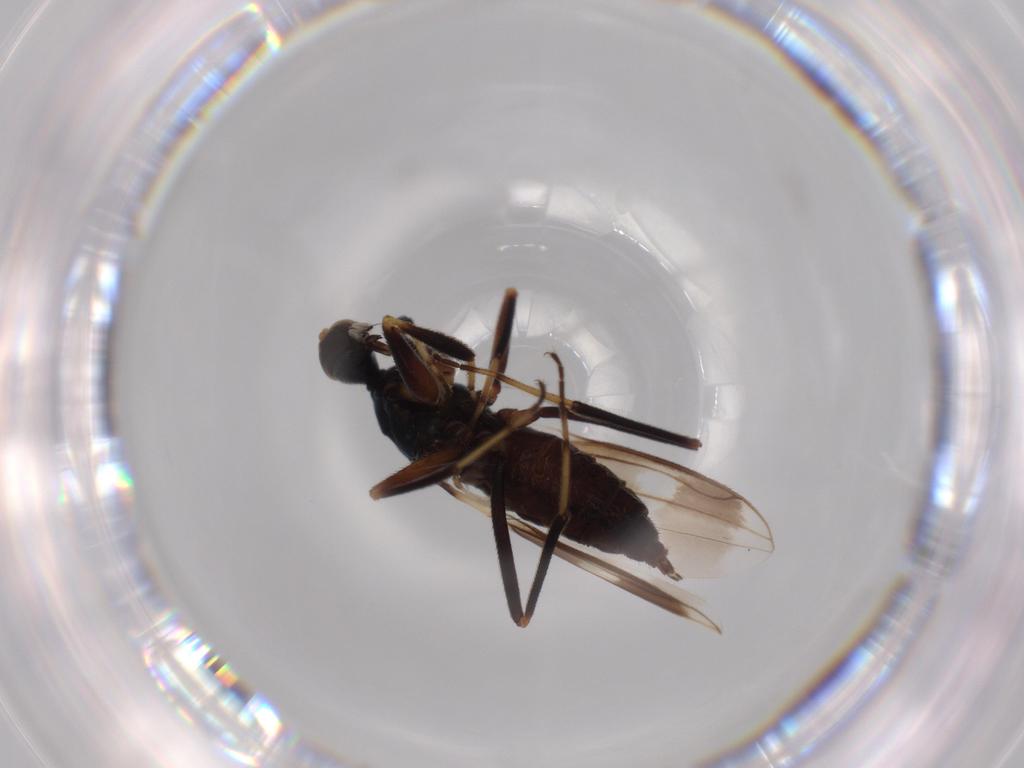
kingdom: Animalia
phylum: Arthropoda
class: Insecta
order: Diptera
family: Hybotidae
